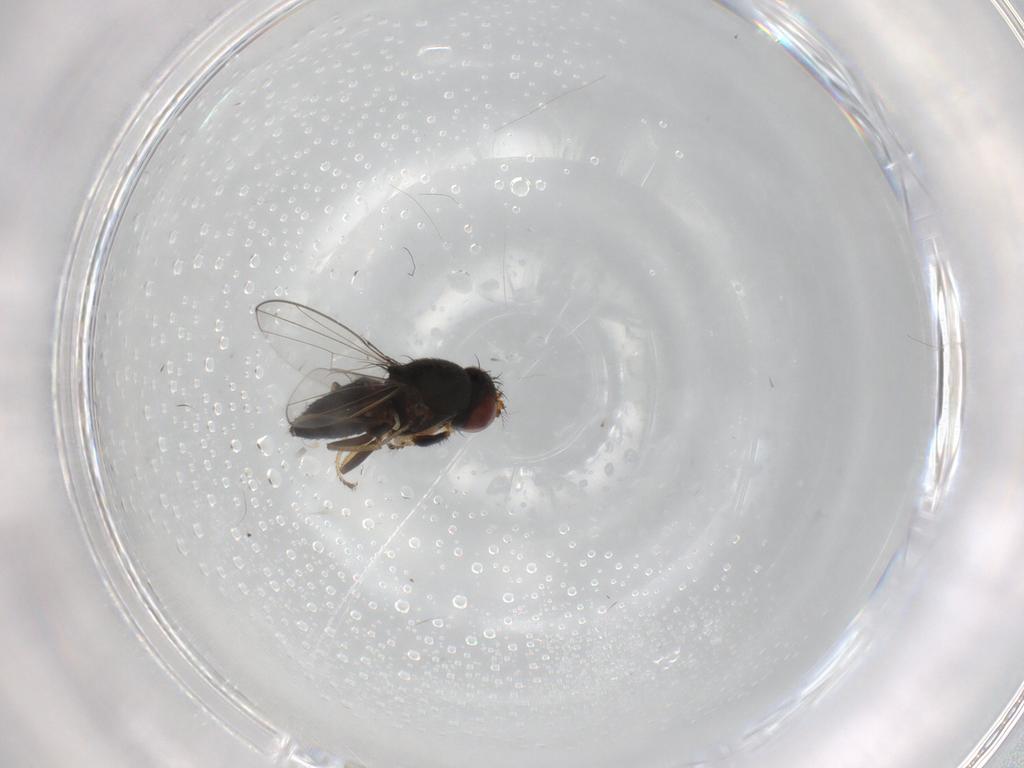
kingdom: Animalia
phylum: Arthropoda
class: Insecta
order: Diptera
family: Ephydridae
